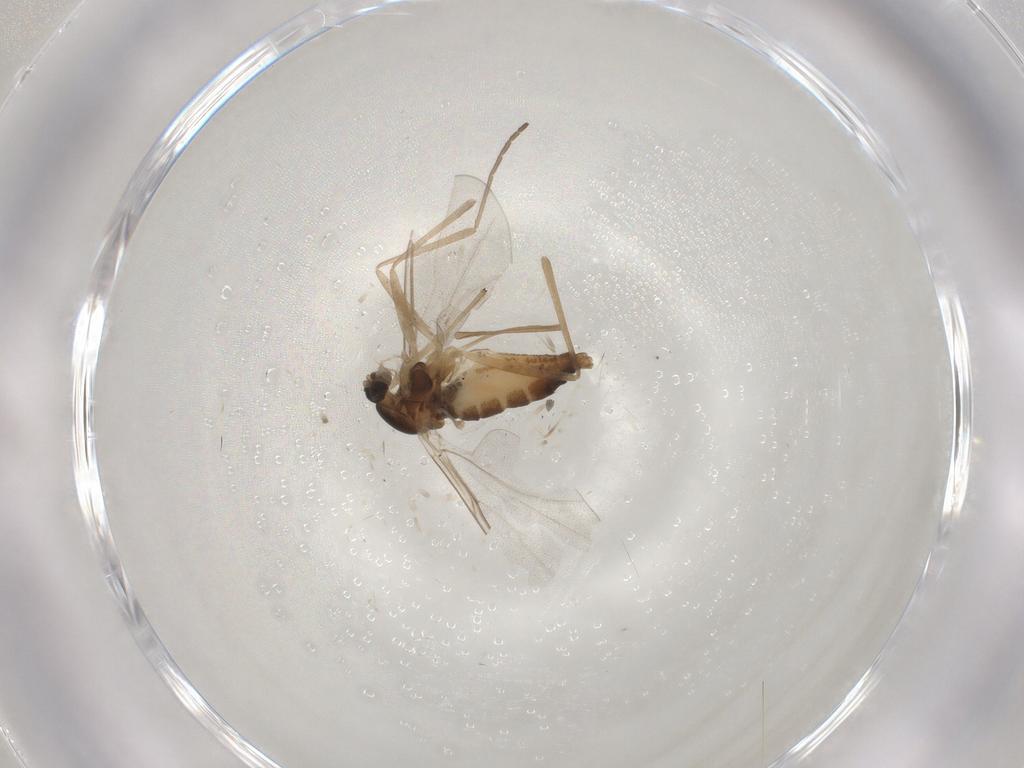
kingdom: Animalia
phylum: Arthropoda
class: Insecta
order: Diptera
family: Cecidomyiidae
